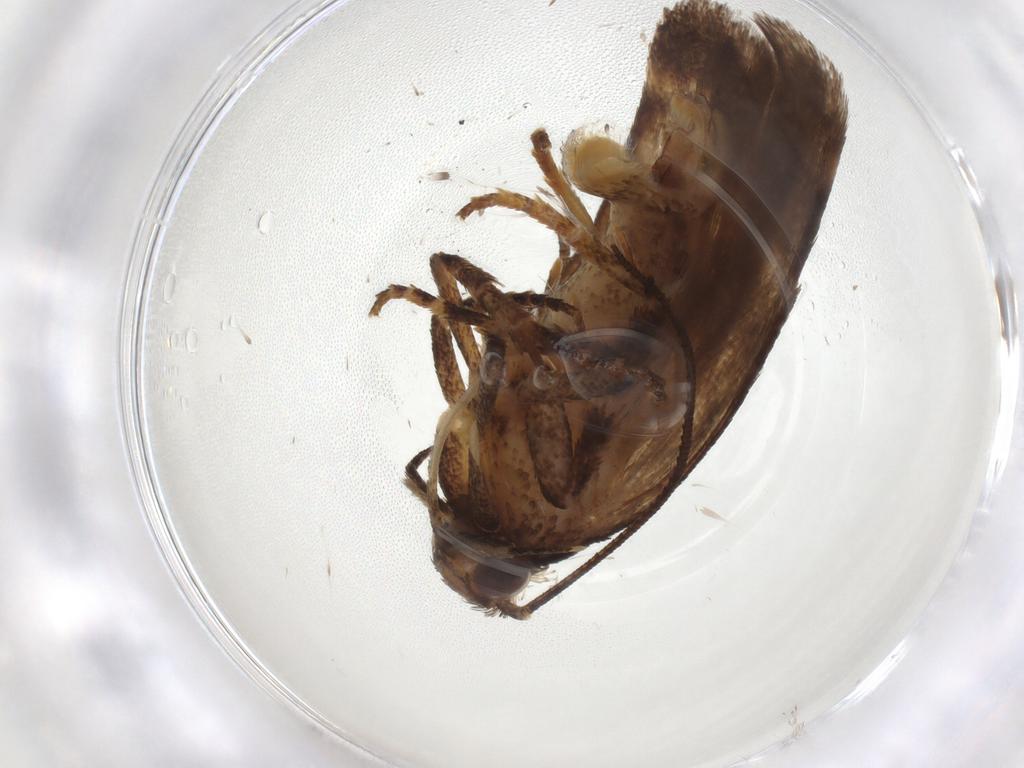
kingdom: Animalia
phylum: Arthropoda
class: Insecta
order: Lepidoptera
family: Gelechiidae
